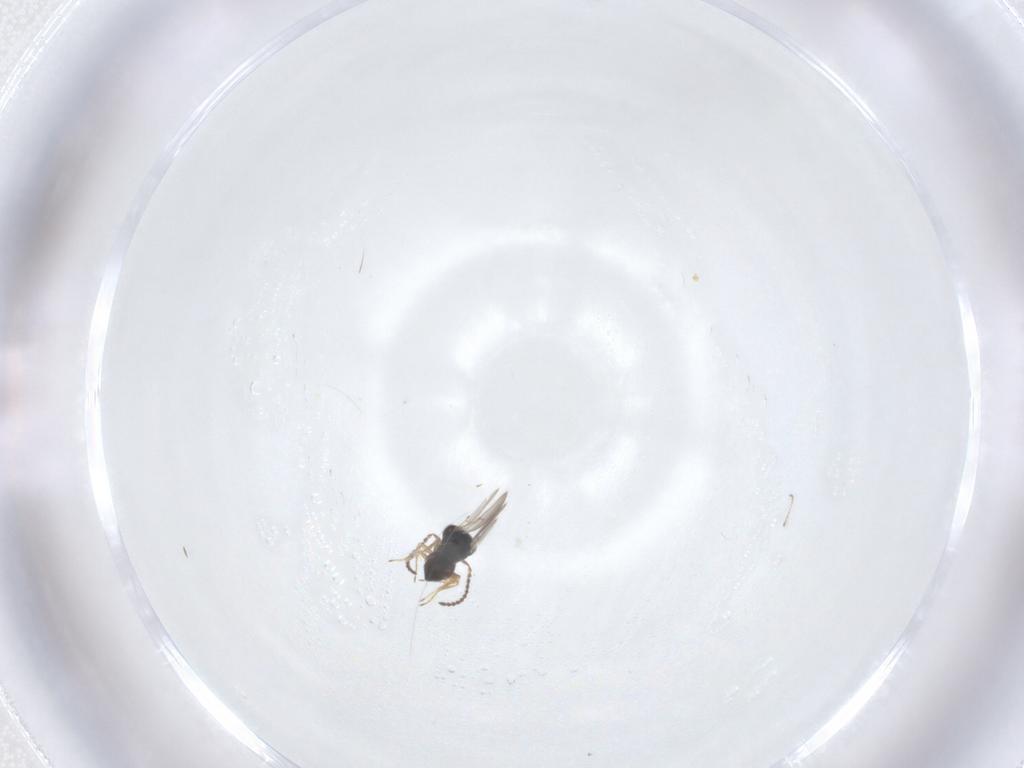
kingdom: Animalia
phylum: Arthropoda
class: Insecta
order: Hymenoptera
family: Scelionidae
